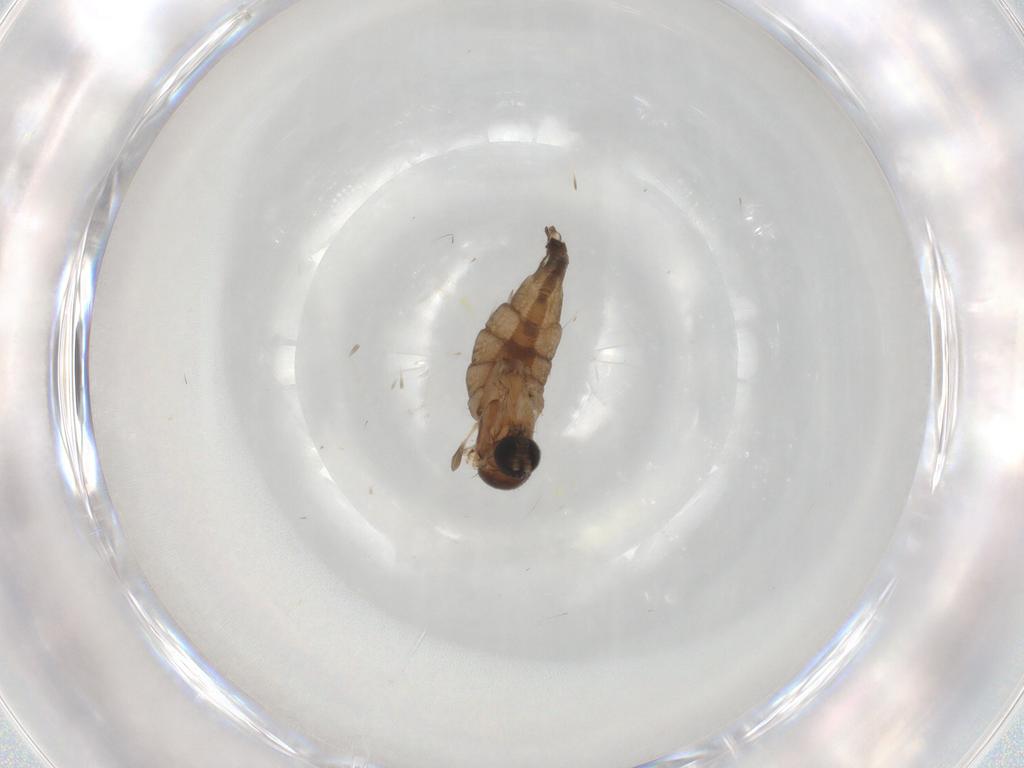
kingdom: Animalia
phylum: Arthropoda
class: Insecta
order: Diptera
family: Sciaridae
